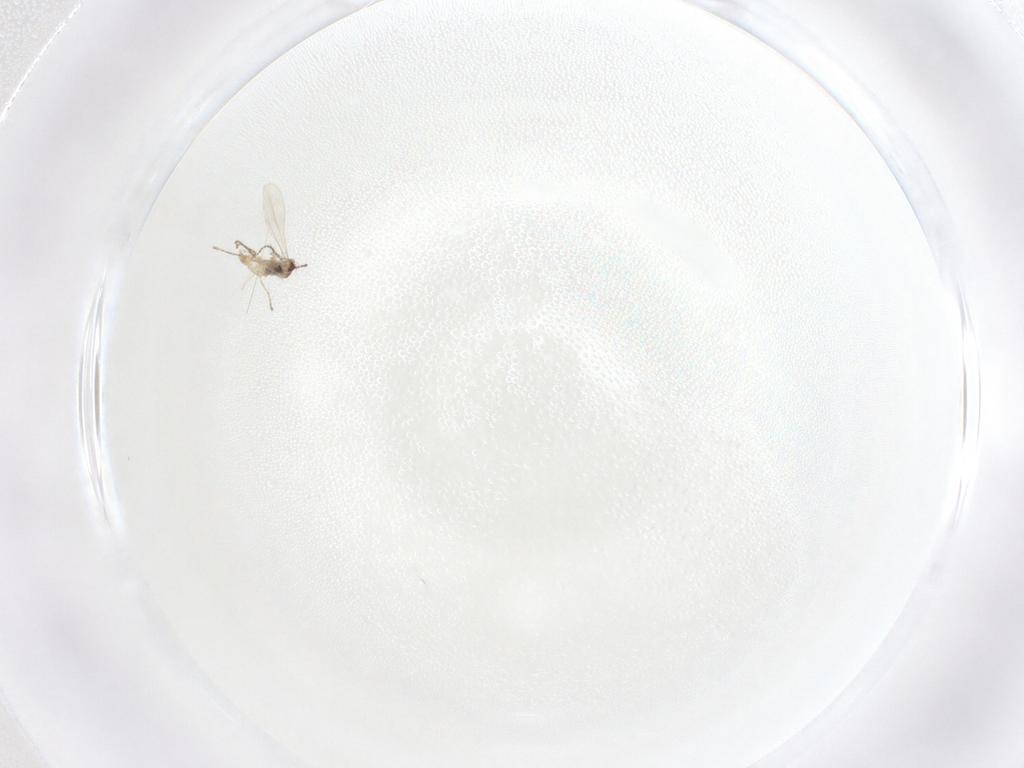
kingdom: Animalia
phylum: Arthropoda
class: Insecta
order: Diptera
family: Cecidomyiidae
